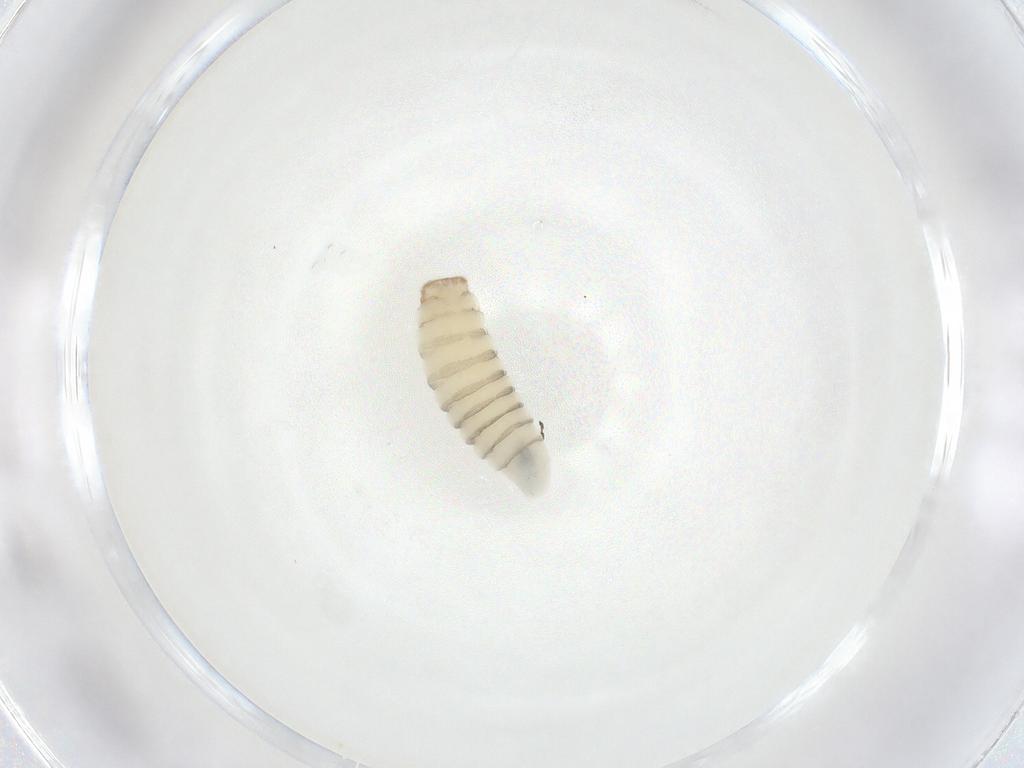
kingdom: Animalia
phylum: Arthropoda
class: Insecta
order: Diptera
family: Sarcophagidae
